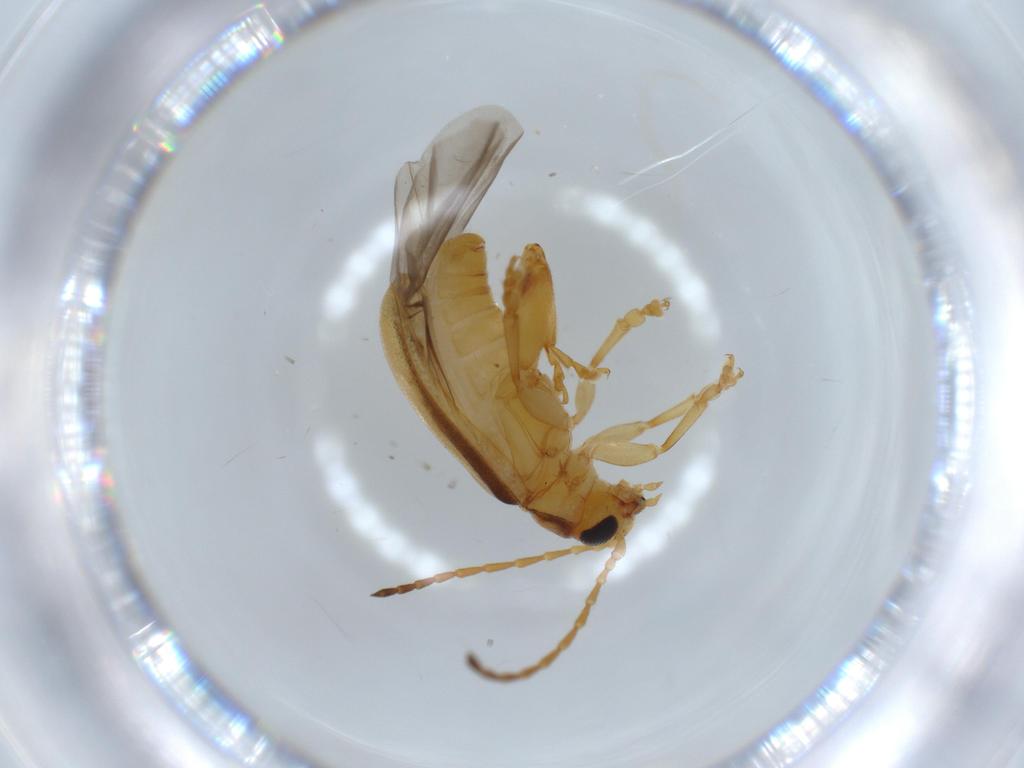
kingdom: Animalia
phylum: Arthropoda
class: Insecta
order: Coleoptera
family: Chrysomelidae
